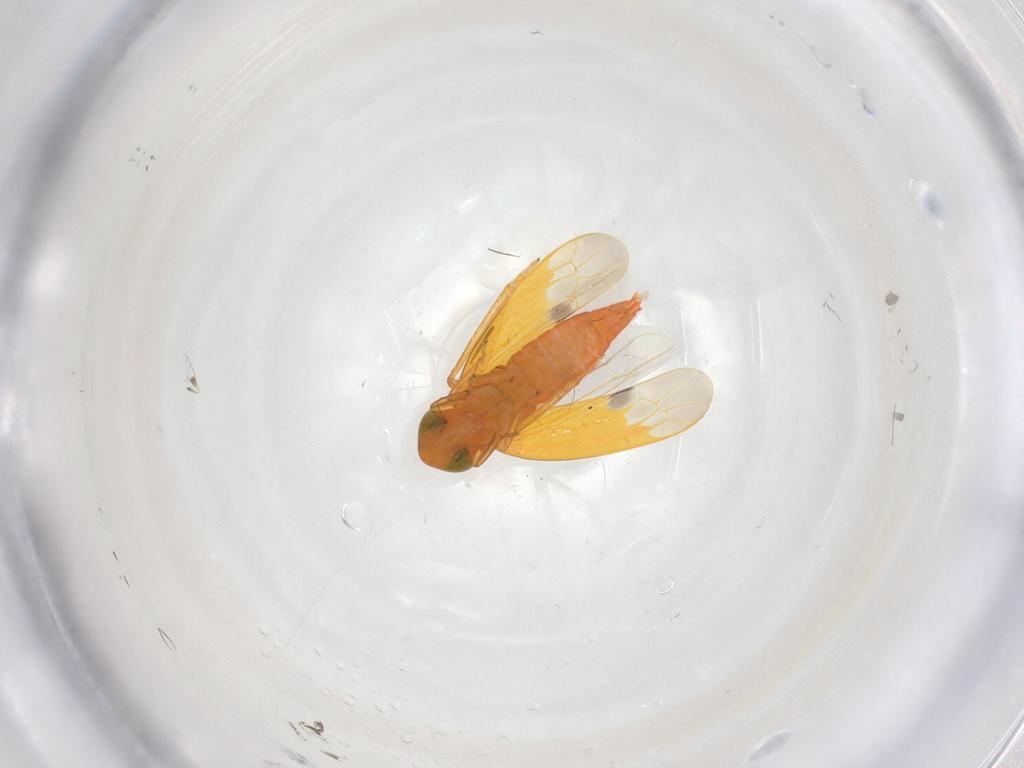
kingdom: Animalia
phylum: Arthropoda
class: Insecta
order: Hemiptera
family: Cicadellidae
